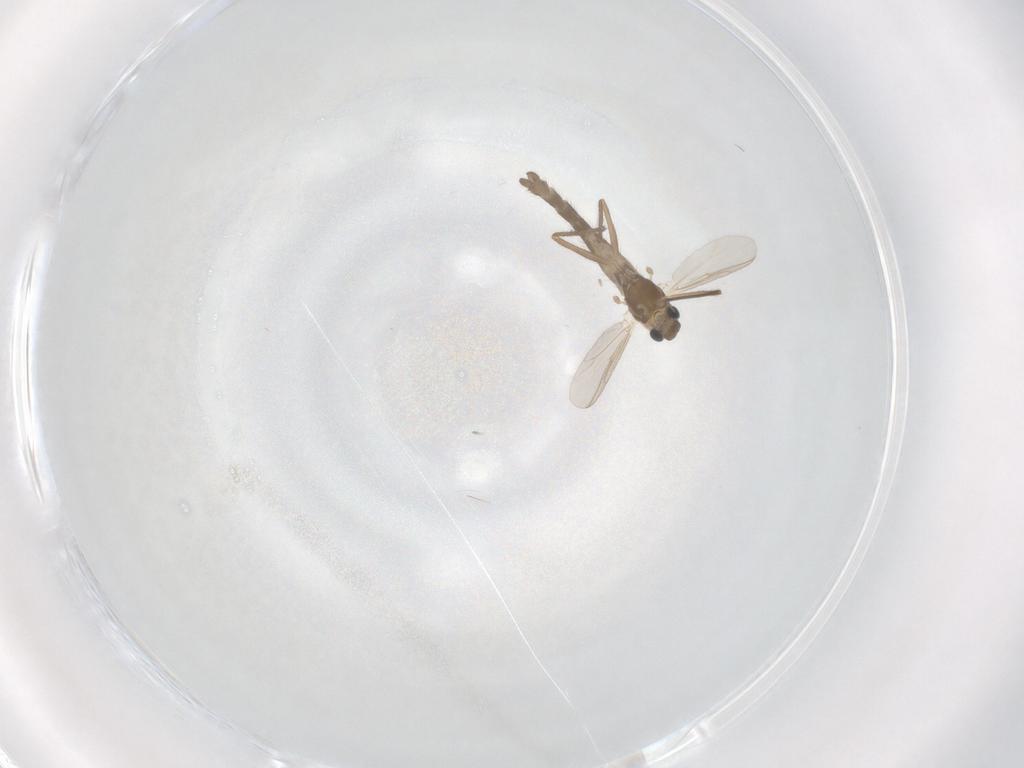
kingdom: Animalia
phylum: Arthropoda
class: Insecta
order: Diptera
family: Chironomidae
